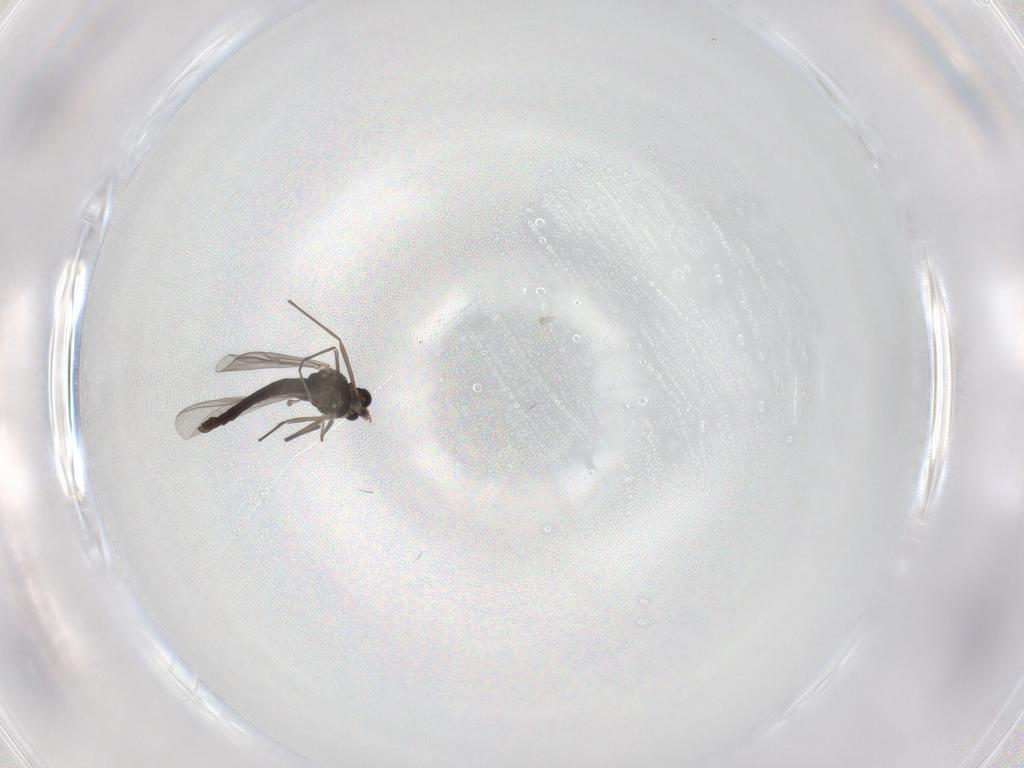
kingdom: Animalia
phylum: Arthropoda
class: Insecta
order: Diptera
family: Chironomidae
